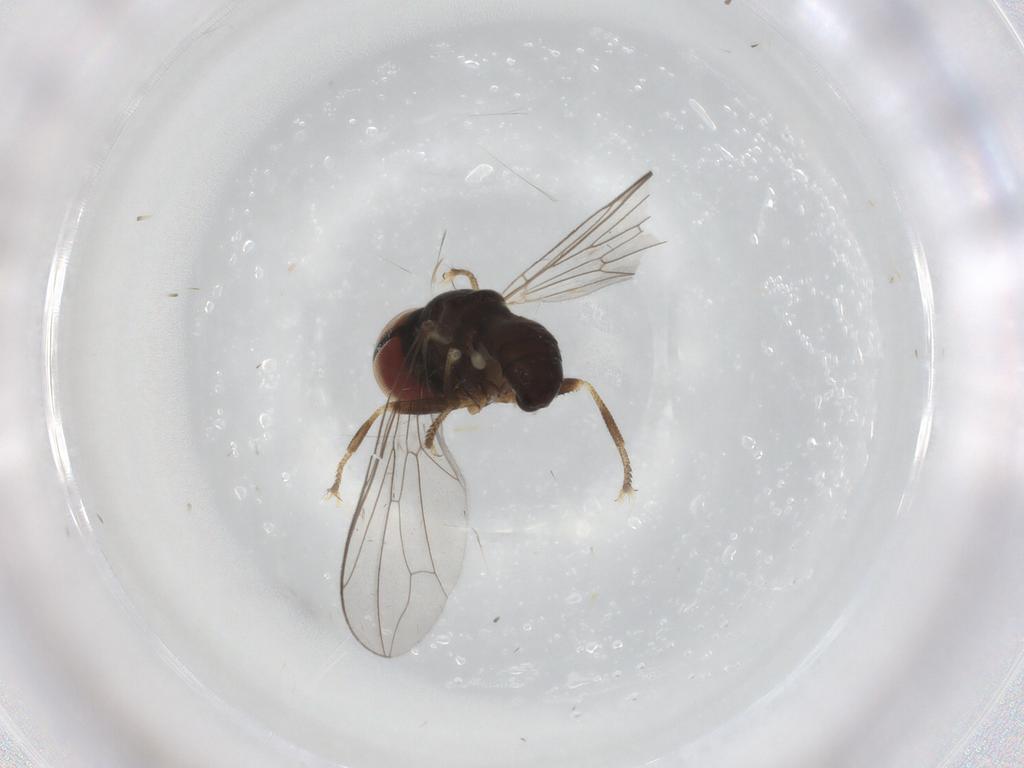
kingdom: Animalia
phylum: Arthropoda
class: Insecta
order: Diptera
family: Pipunculidae
